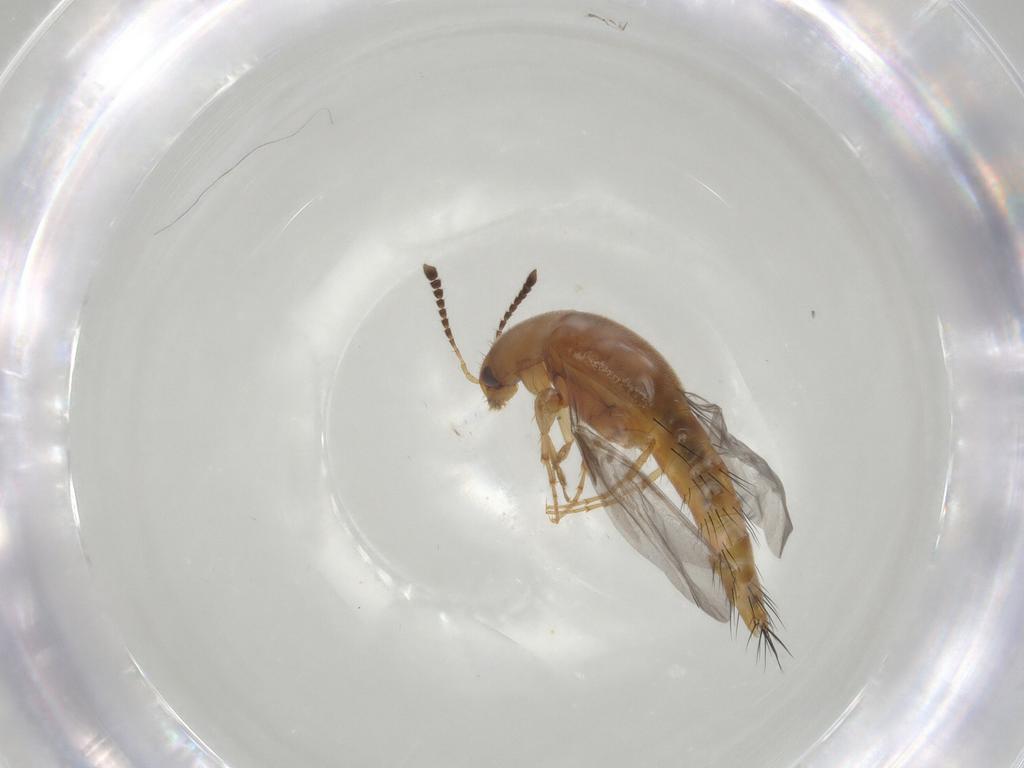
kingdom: Animalia
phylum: Arthropoda
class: Insecta
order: Coleoptera
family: Staphylinidae
